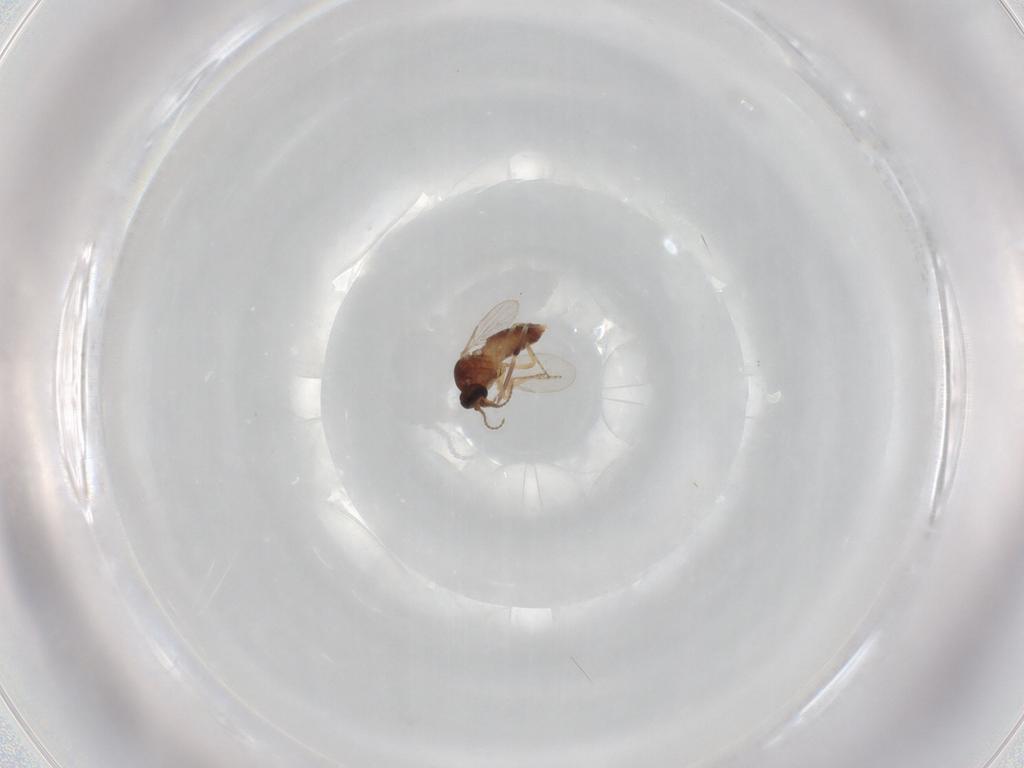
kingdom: Animalia
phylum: Arthropoda
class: Insecta
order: Diptera
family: Ceratopogonidae
